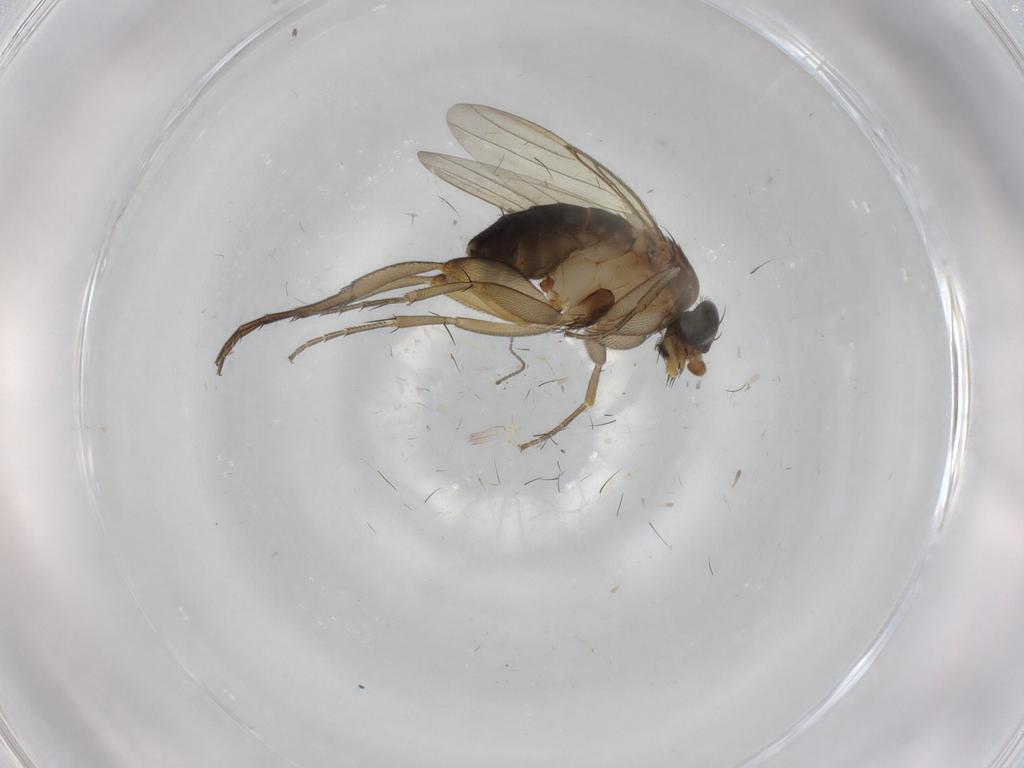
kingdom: Animalia
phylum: Arthropoda
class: Insecta
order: Diptera
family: Phoridae
